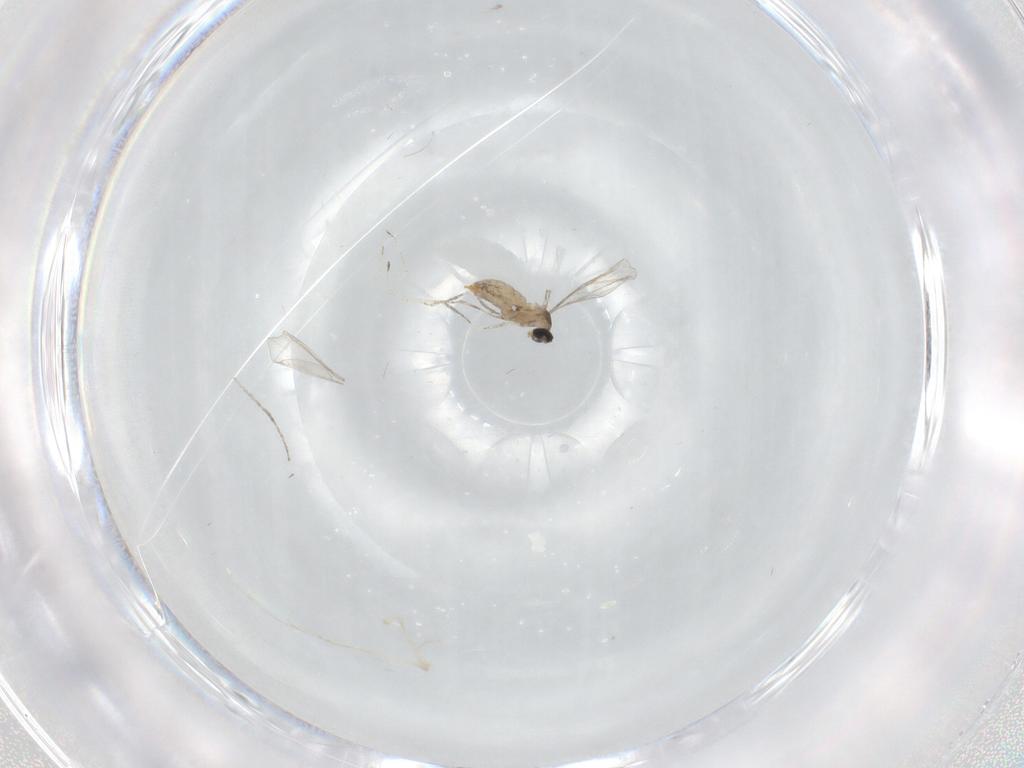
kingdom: Animalia
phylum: Arthropoda
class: Insecta
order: Diptera
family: Cecidomyiidae
